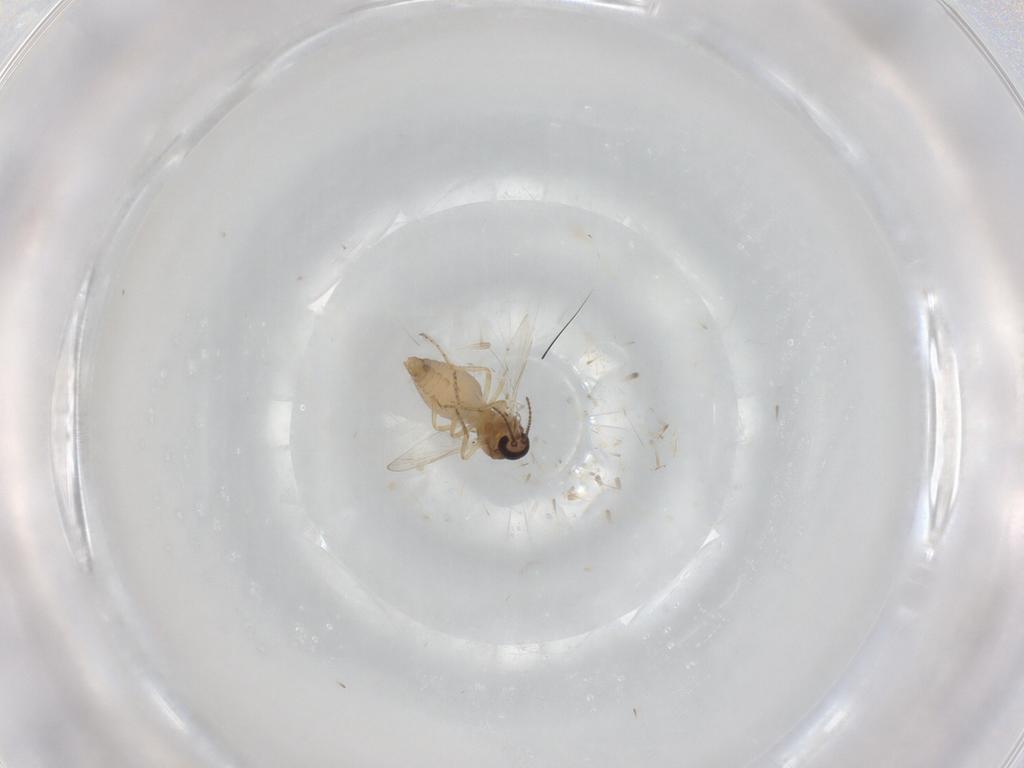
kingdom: Animalia
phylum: Arthropoda
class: Insecta
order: Diptera
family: Ceratopogonidae
